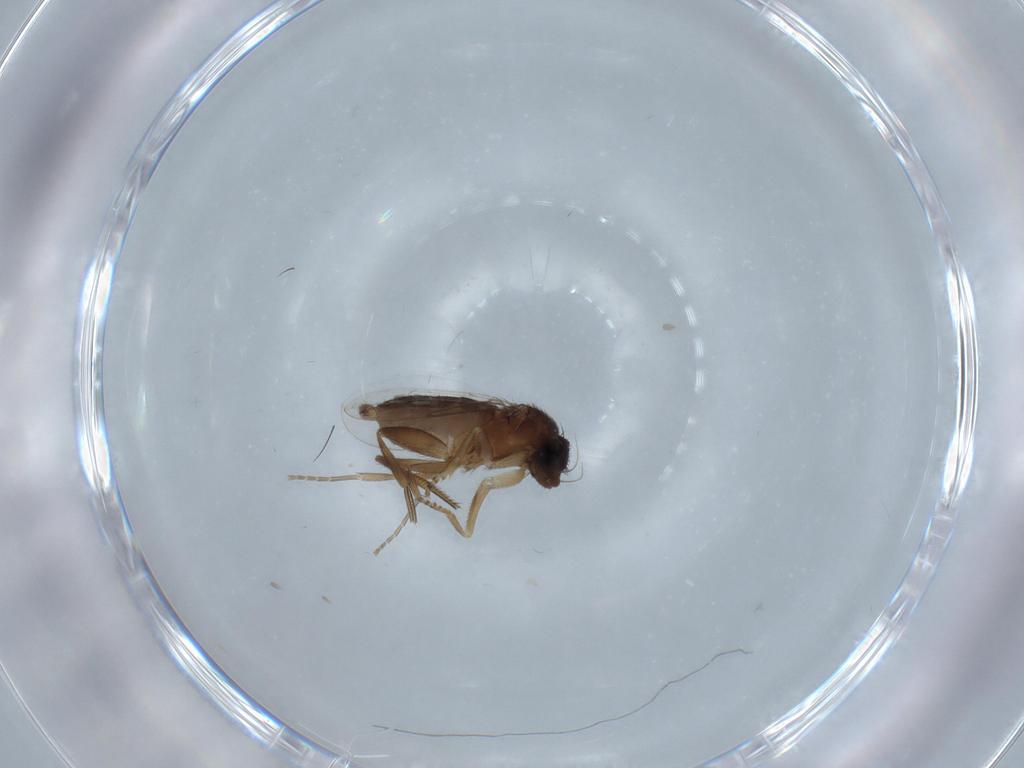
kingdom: Animalia
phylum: Arthropoda
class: Insecta
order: Diptera
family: Phoridae
